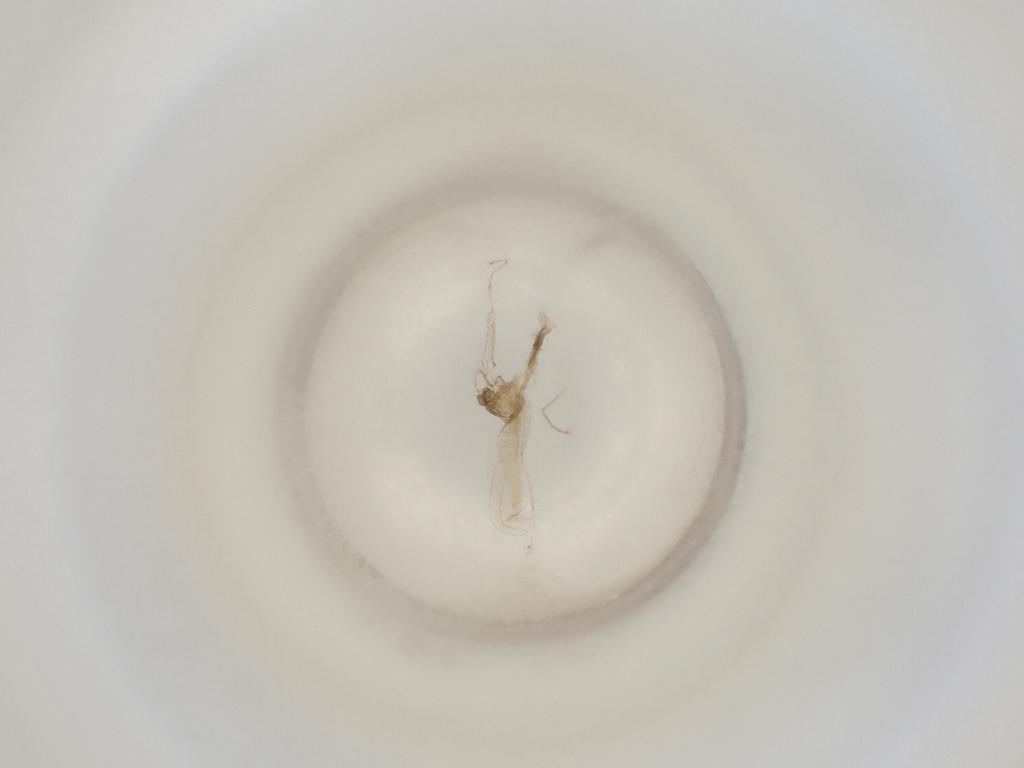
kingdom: Animalia
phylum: Arthropoda
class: Insecta
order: Diptera
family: Cecidomyiidae
